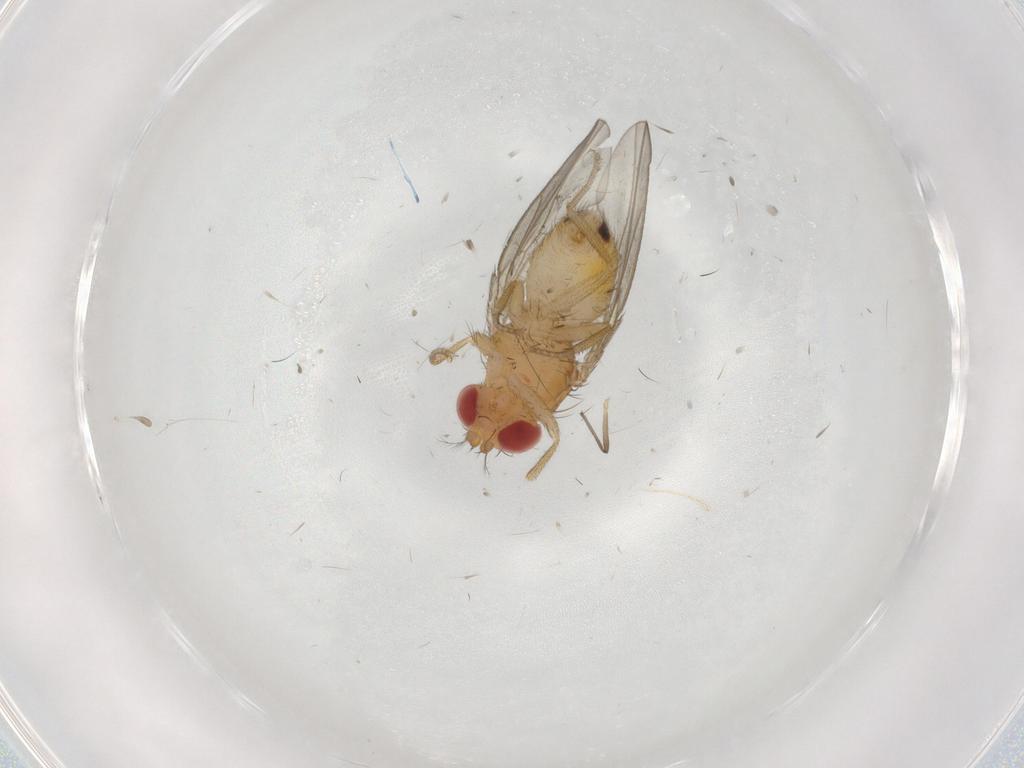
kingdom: Animalia
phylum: Arthropoda
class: Insecta
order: Diptera
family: Drosophilidae
